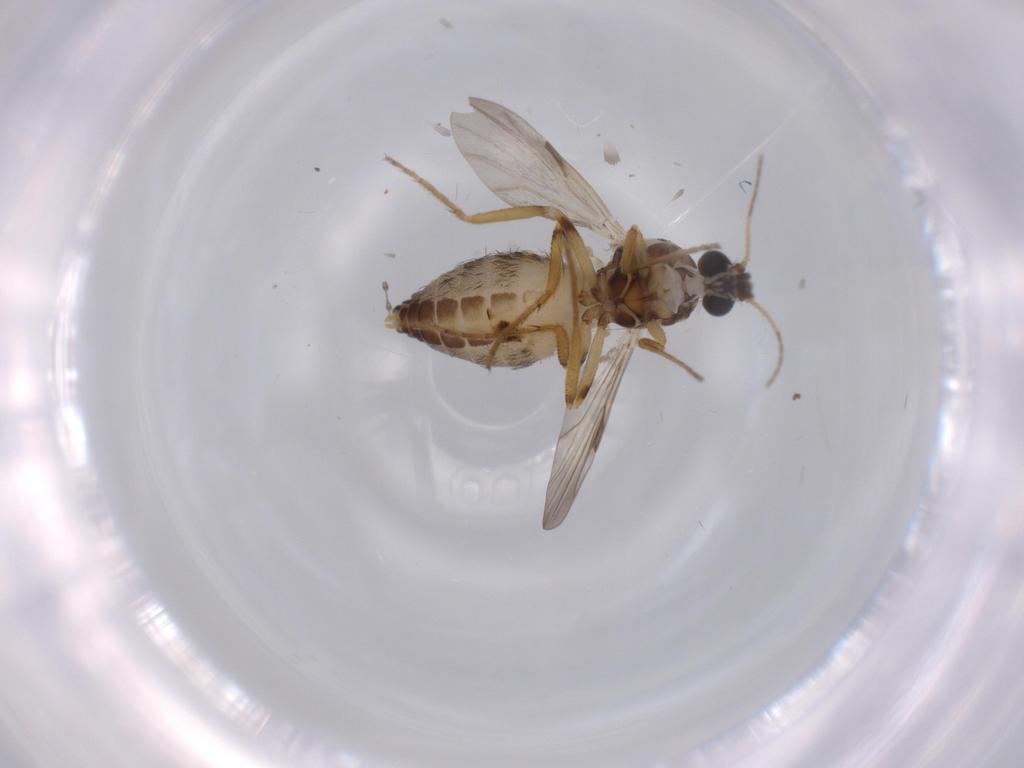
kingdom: Animalia
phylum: Arthropoda
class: Insecta
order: Diptera
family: Ceratopogonidae
